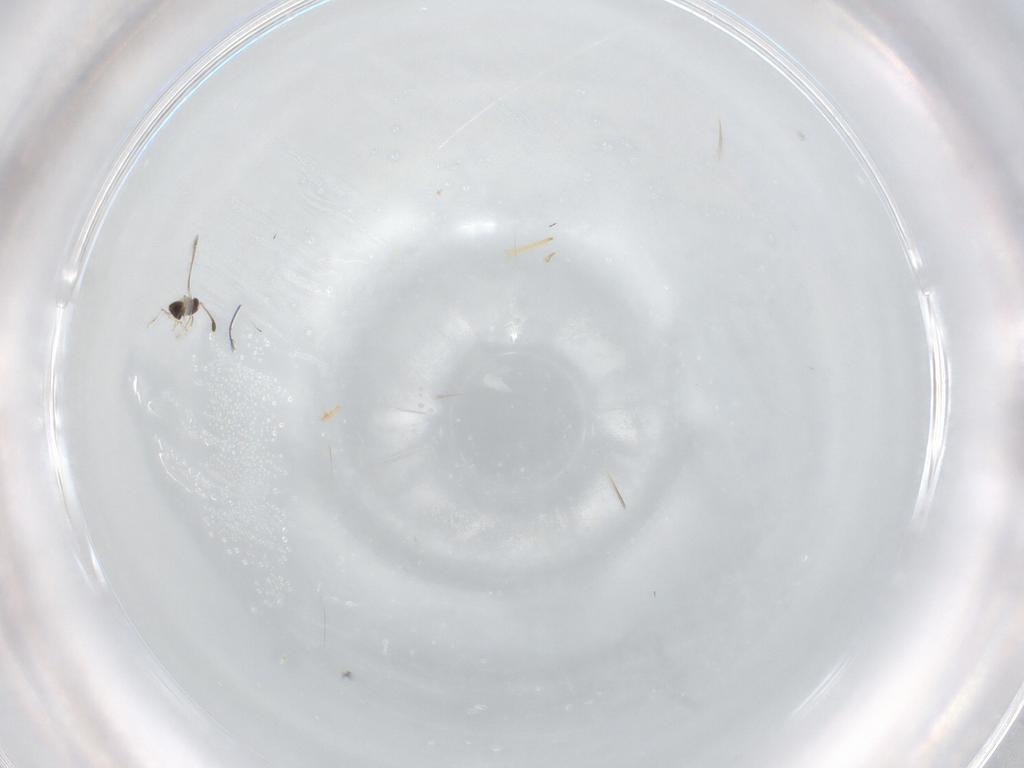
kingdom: Animalia
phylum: Arthropoda
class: Insecta
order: Hymenoptera
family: Mymaridae
